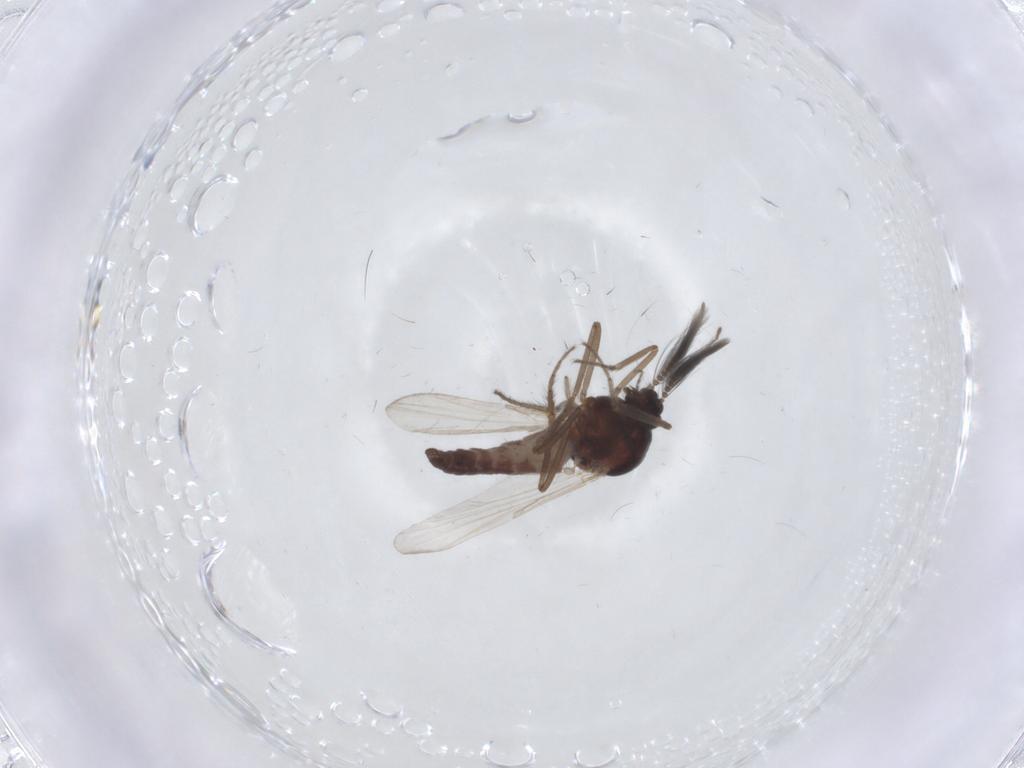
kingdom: Animalia
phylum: Arthropoda
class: Insecta
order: Diptera
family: Ceratopogonidae
